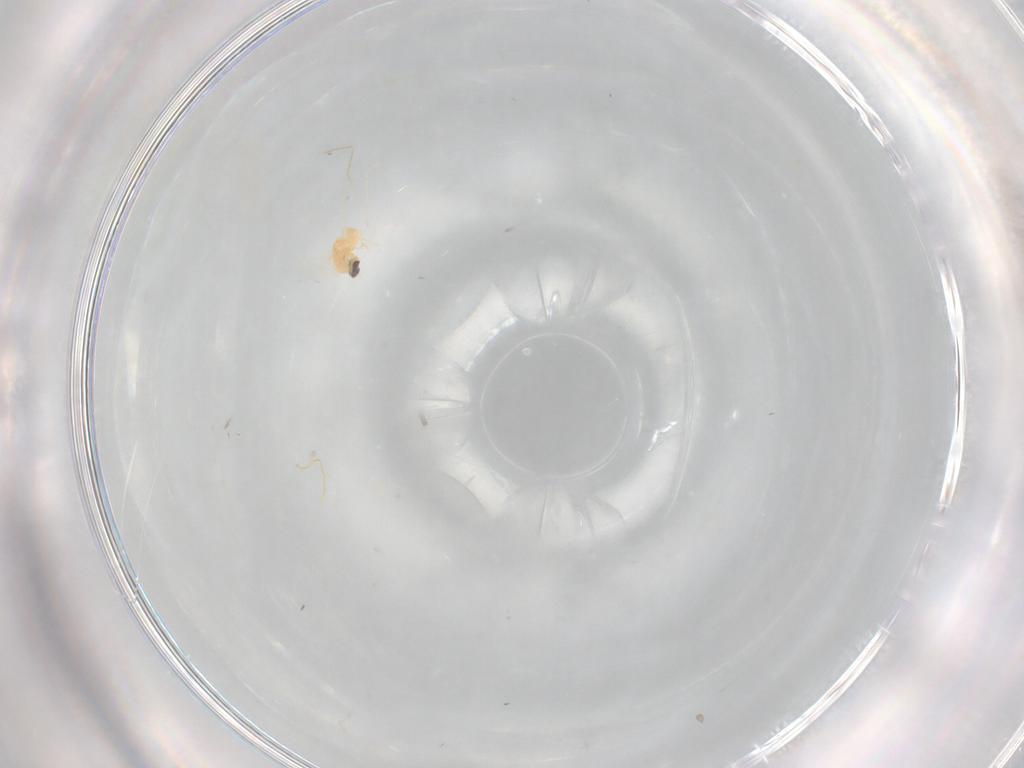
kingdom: Animalia
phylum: Arthropoda
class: Insecta
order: Diptera
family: Cecidomyiidae
